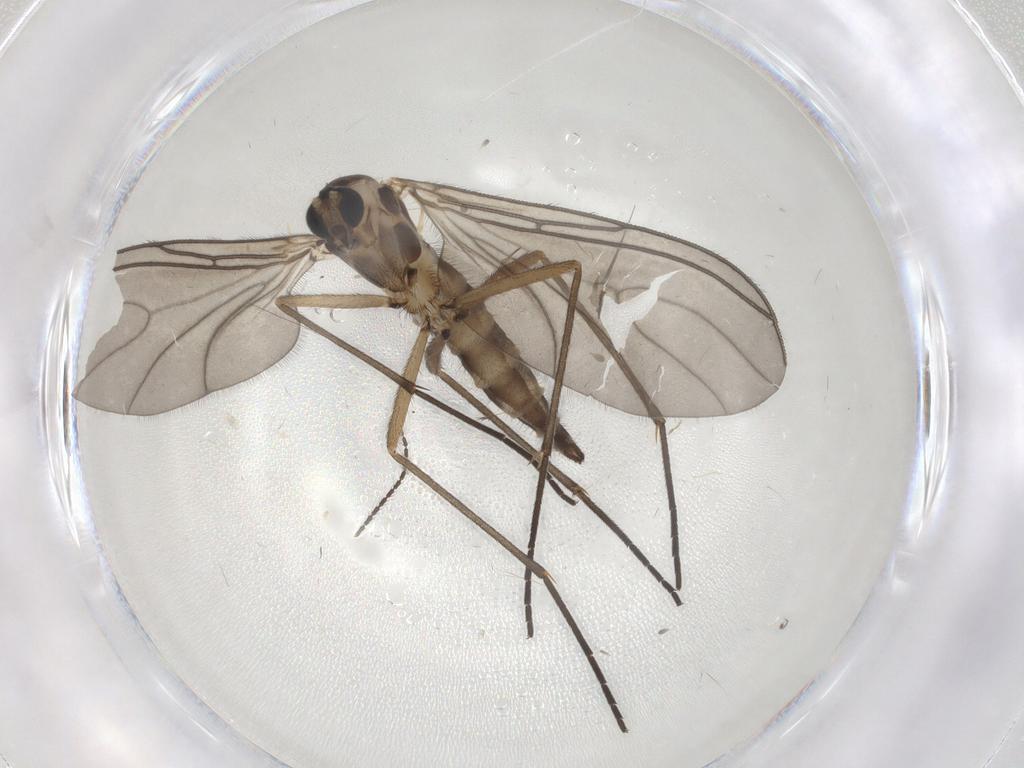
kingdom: Animalia
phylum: Arthropoda
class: Insecta
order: Diptera
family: Sciaridae
